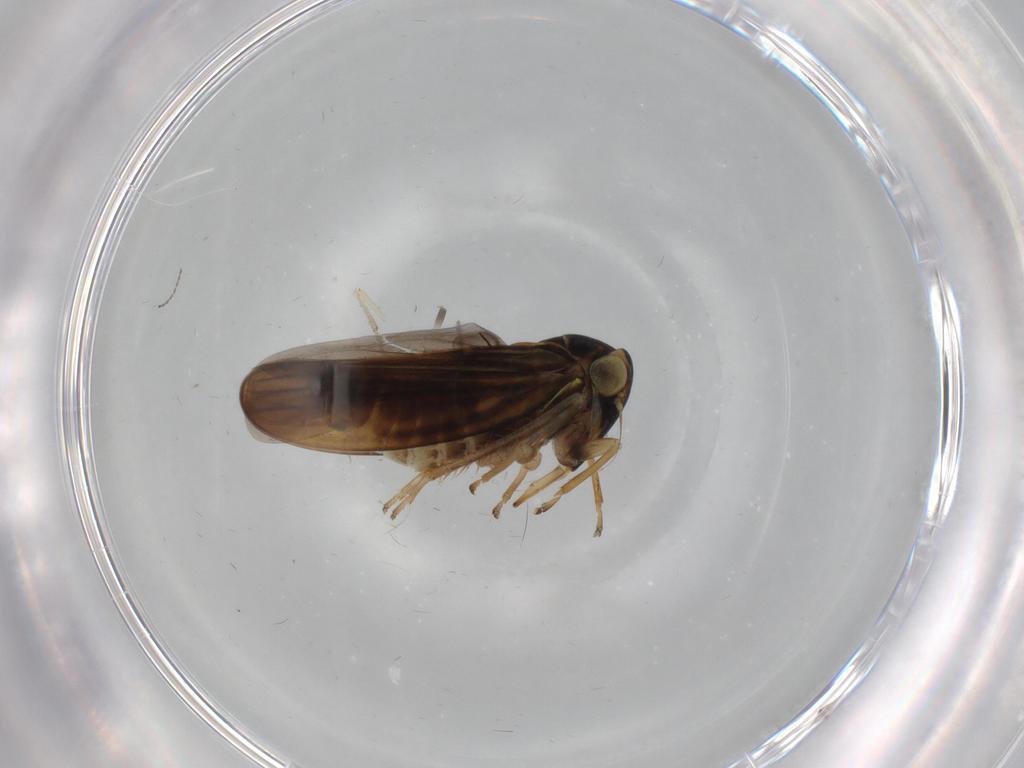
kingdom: Animalia
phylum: Arthropoda
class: Insecta
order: Hemiptera
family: Cicadellidae
